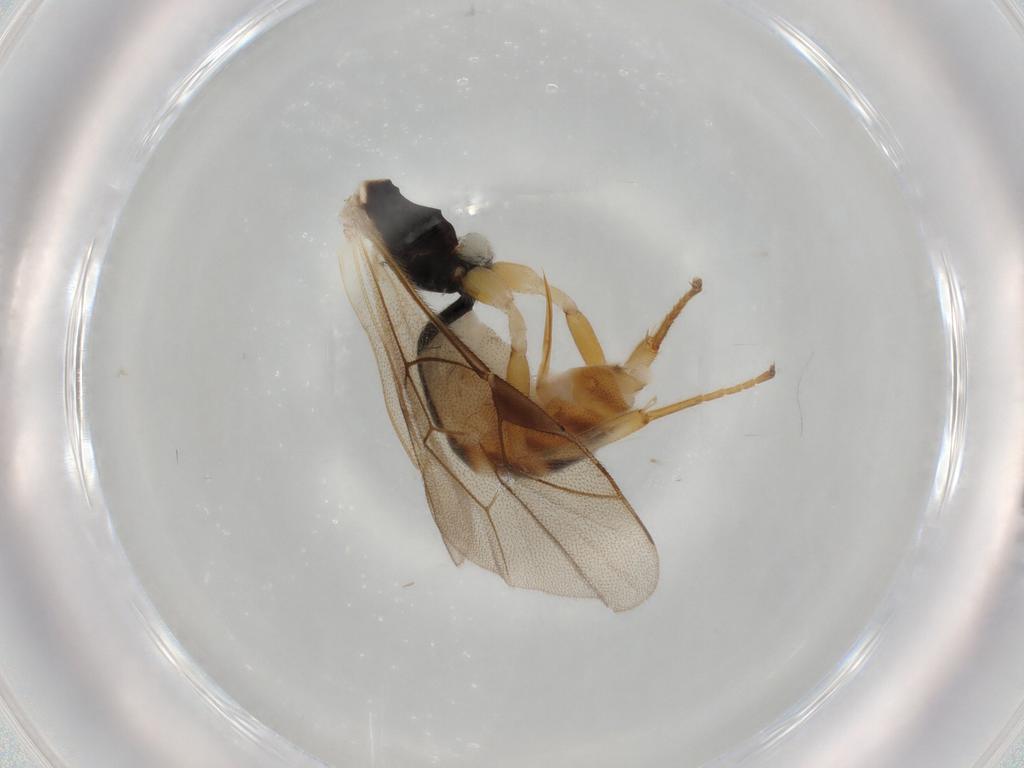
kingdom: Animalia
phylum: Arthropoda
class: Insecta
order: Hymenoptera
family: Ichneumonidae
